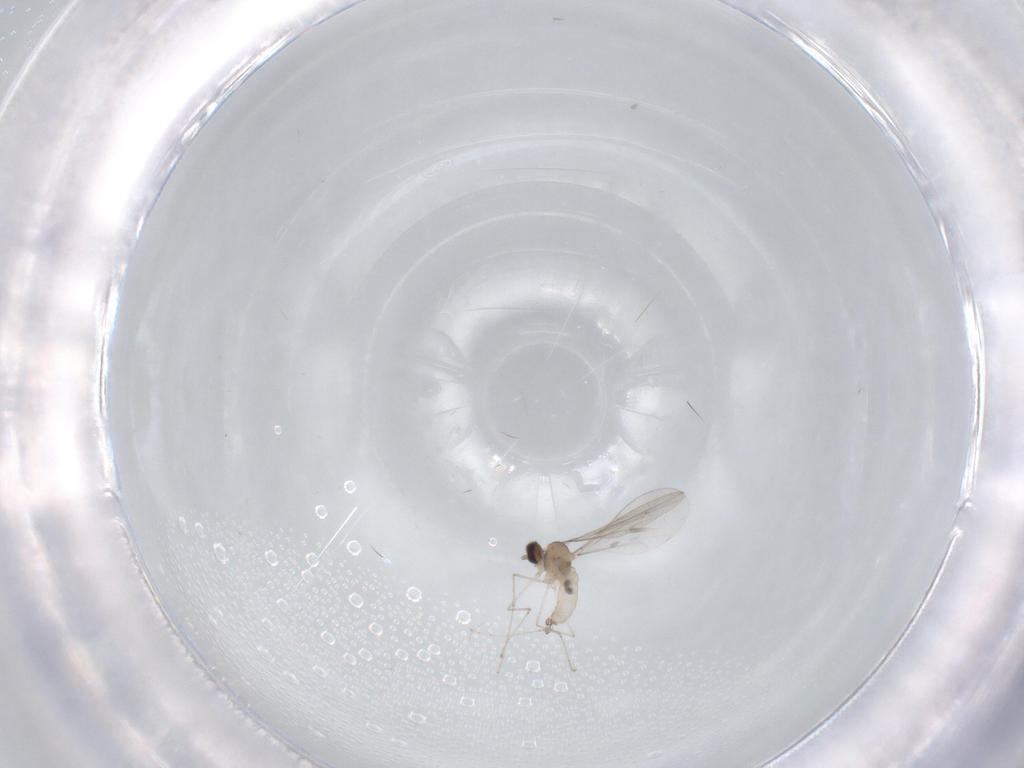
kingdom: Animalia
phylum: Arthropoda
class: Insecta
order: Diptera
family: Cecidomyiidae
